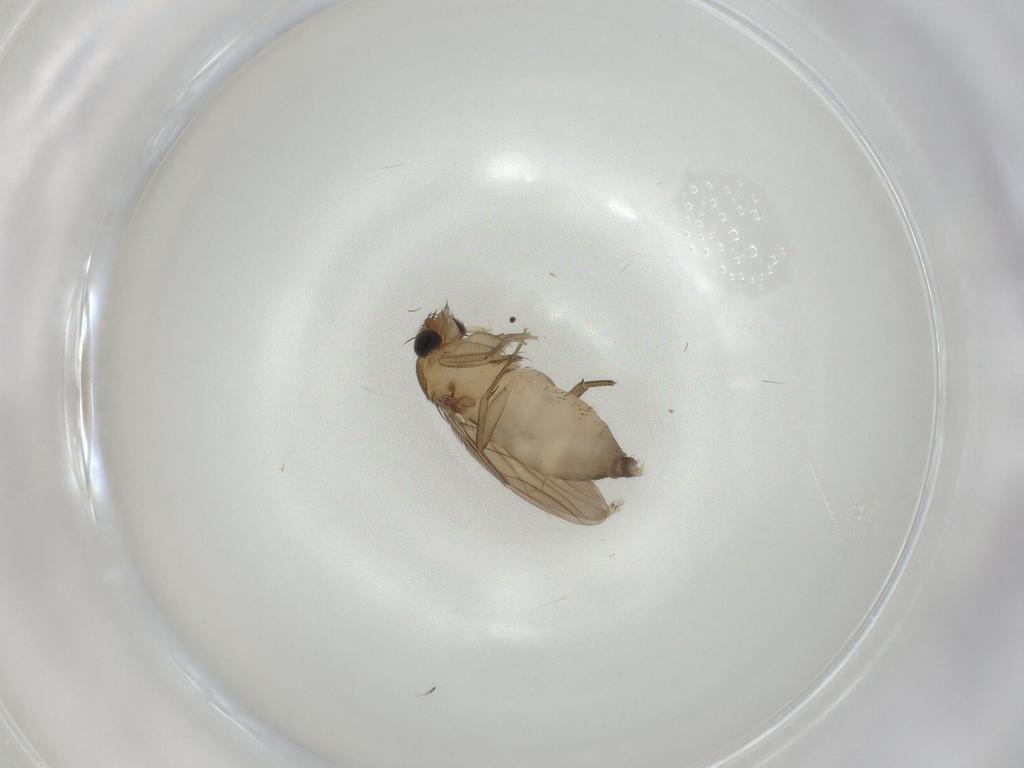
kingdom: Animalia
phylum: Arthropoda
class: Insecta
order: Diptera
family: Phoridae
